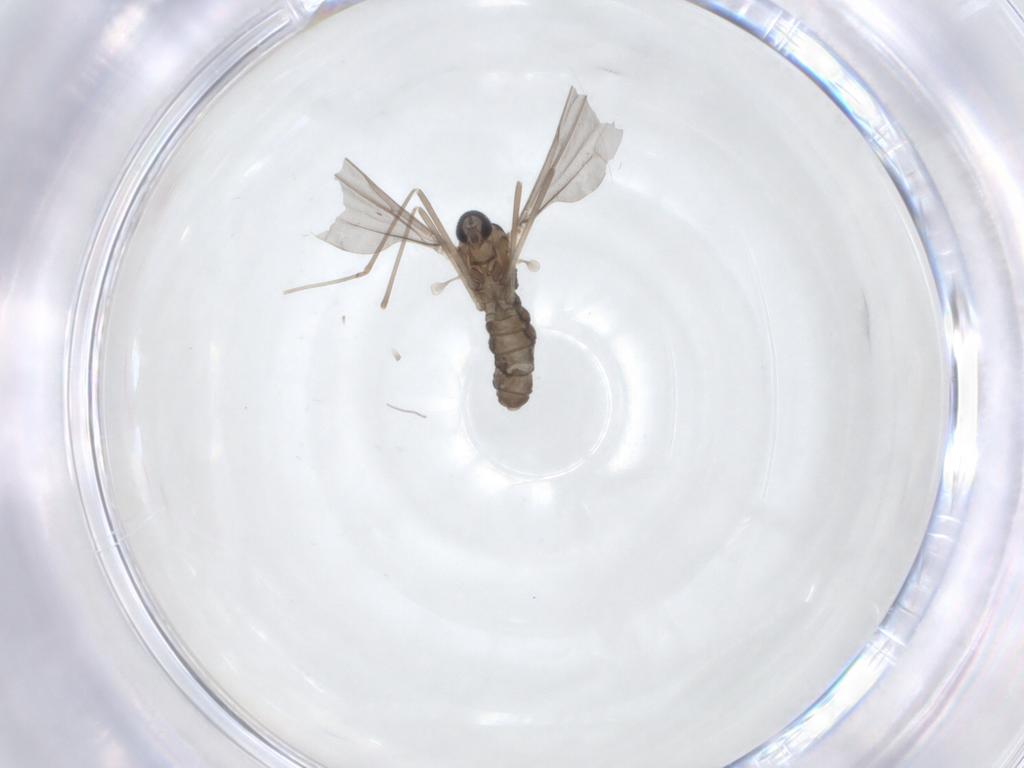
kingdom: Animalia
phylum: Arthropoda
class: Insecta
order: Diptera
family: Cecidomyiidae
